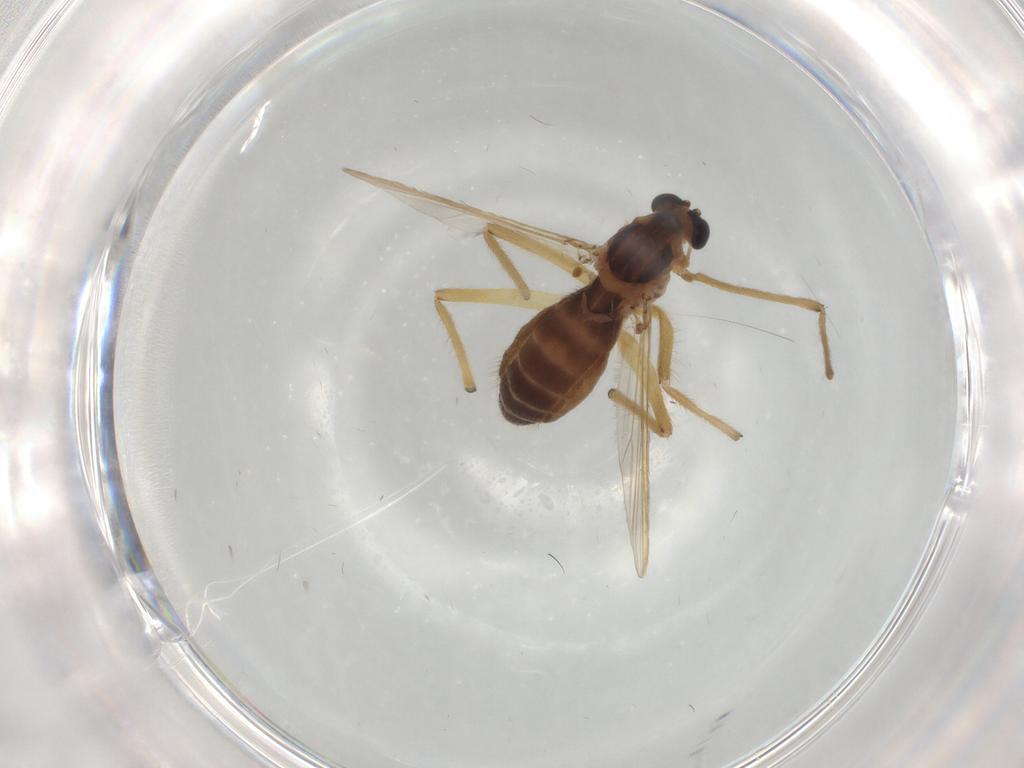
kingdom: Animalia
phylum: Arthropoda
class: Insecta
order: Diptera
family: Chironomidae
